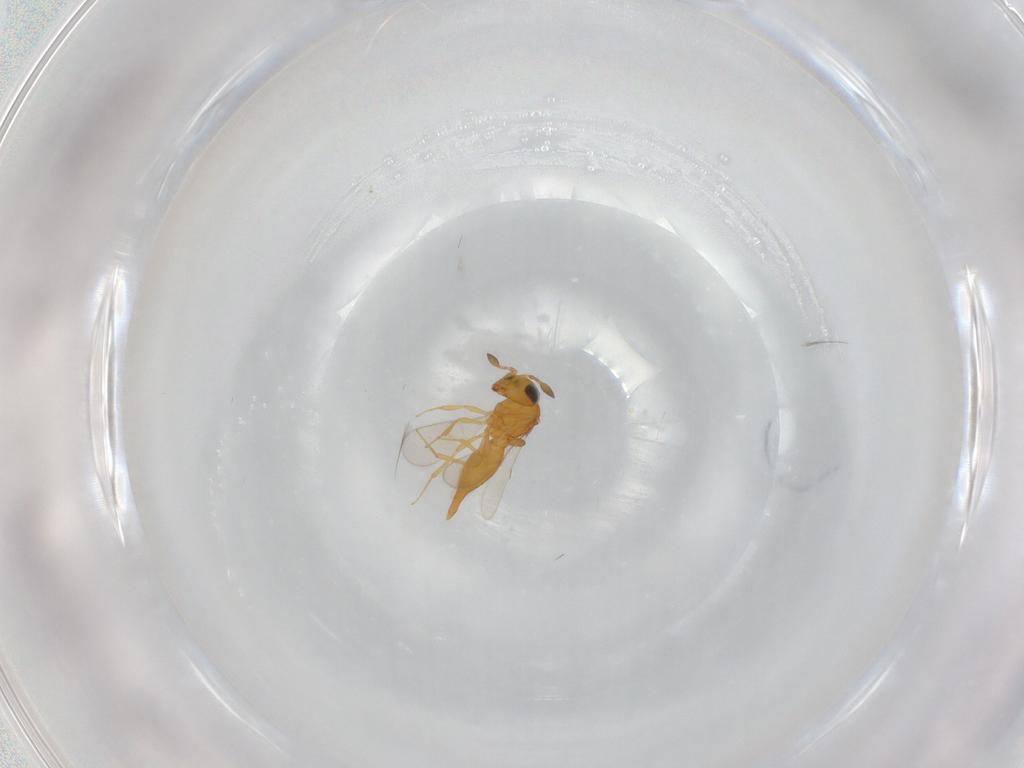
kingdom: Animalia
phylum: Arthropoda
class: Insecta
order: Hymenoptera
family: Scelionidae
